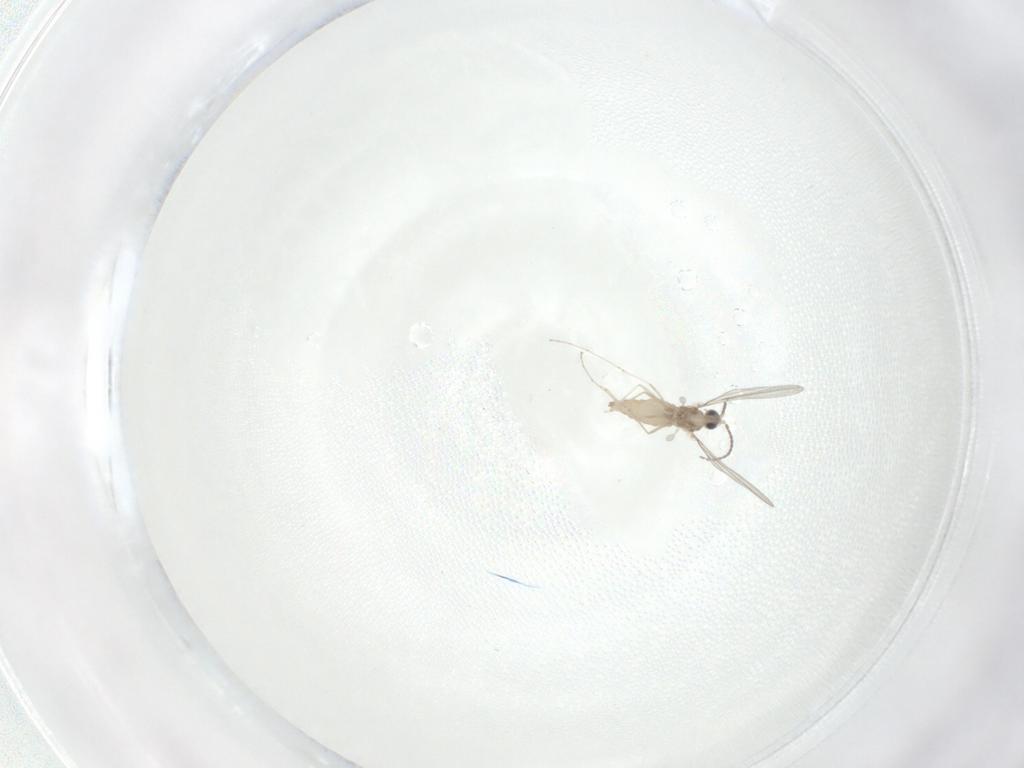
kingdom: Animalia
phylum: Arthropoda
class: Insecta
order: Diptera
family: Cecidomyiidae
